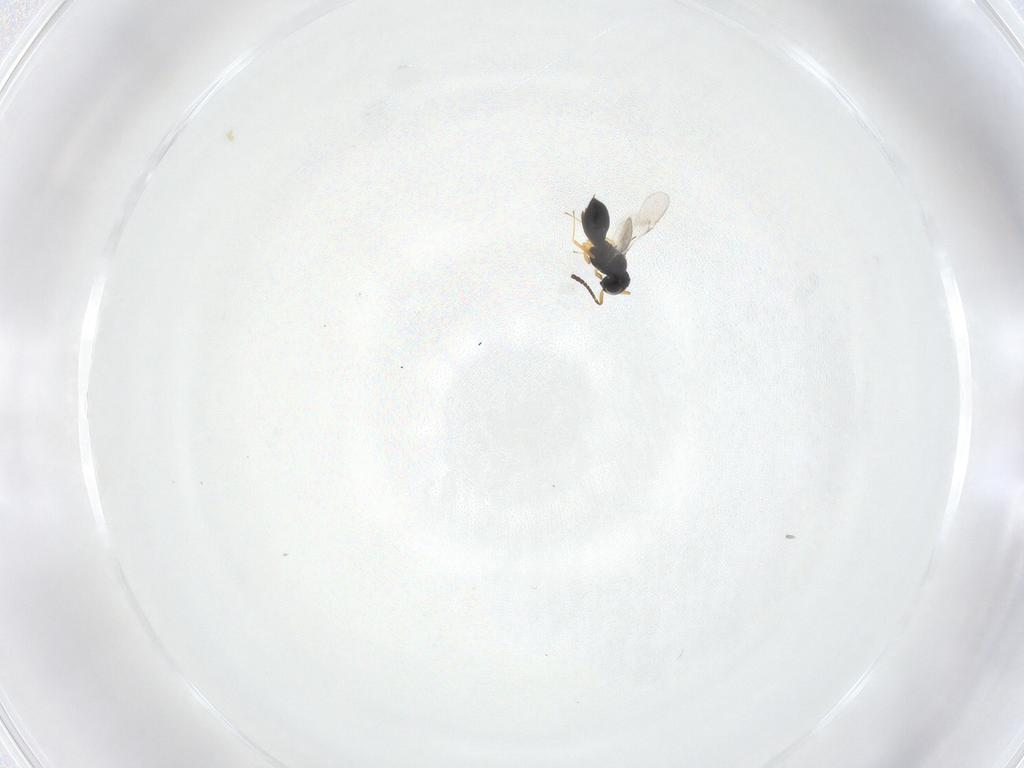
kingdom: Animalia
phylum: Arthropoda
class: Insecta
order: Hymenoptera
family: Scelionidae
